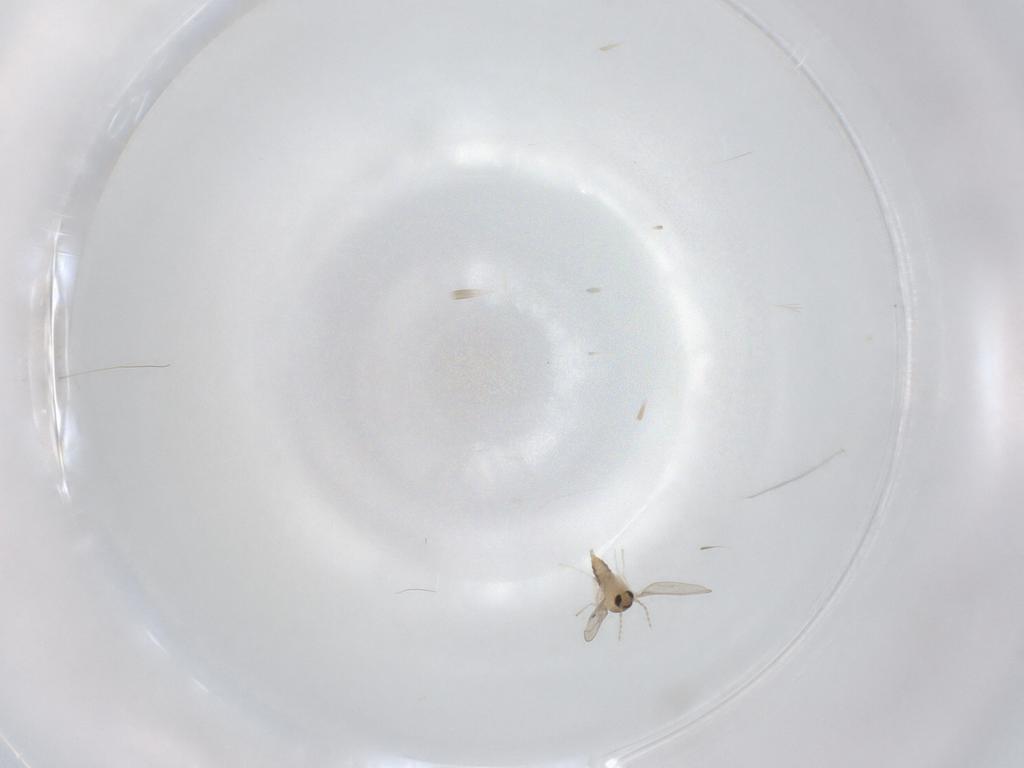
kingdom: Animalia
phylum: Arthropoda
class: Insecta
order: Diptera
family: Cecidomyiidae
